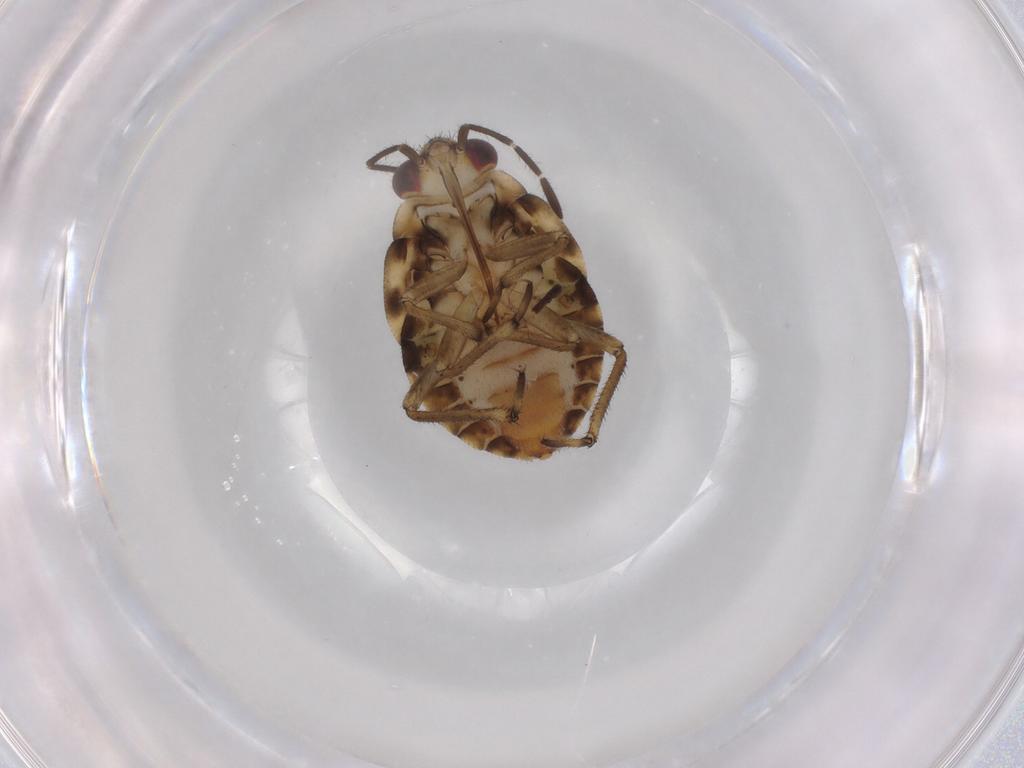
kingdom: Animalia
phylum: Arthropoda
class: Insecta
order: Hemiptera
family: Saldidae
